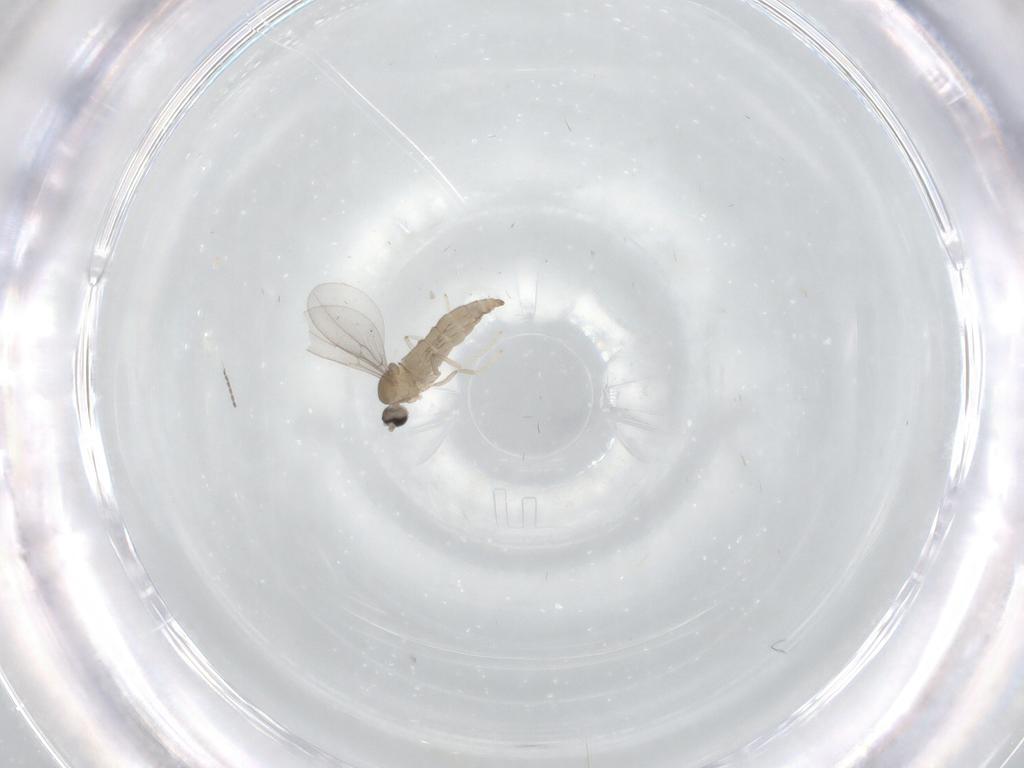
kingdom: Animalia
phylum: Arthropoda
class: Insecta
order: Diptera
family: Cecidomyiidae
